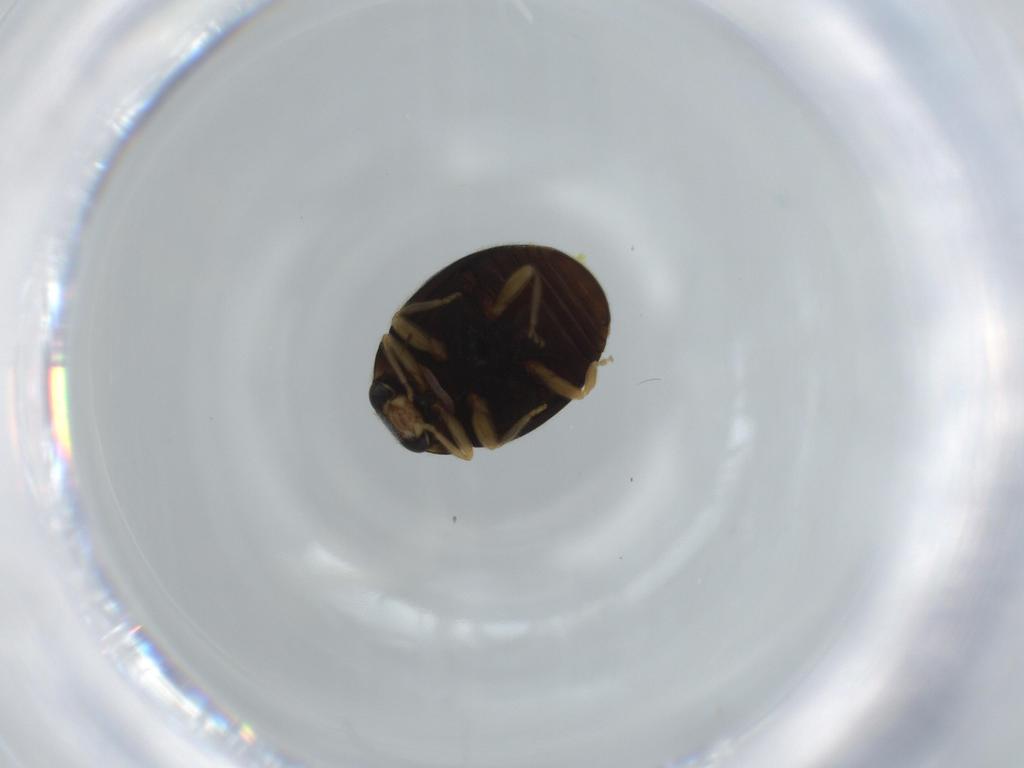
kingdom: Animalia
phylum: Arthropoda
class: Insecta
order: Coleoptera
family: Coccinellidae
